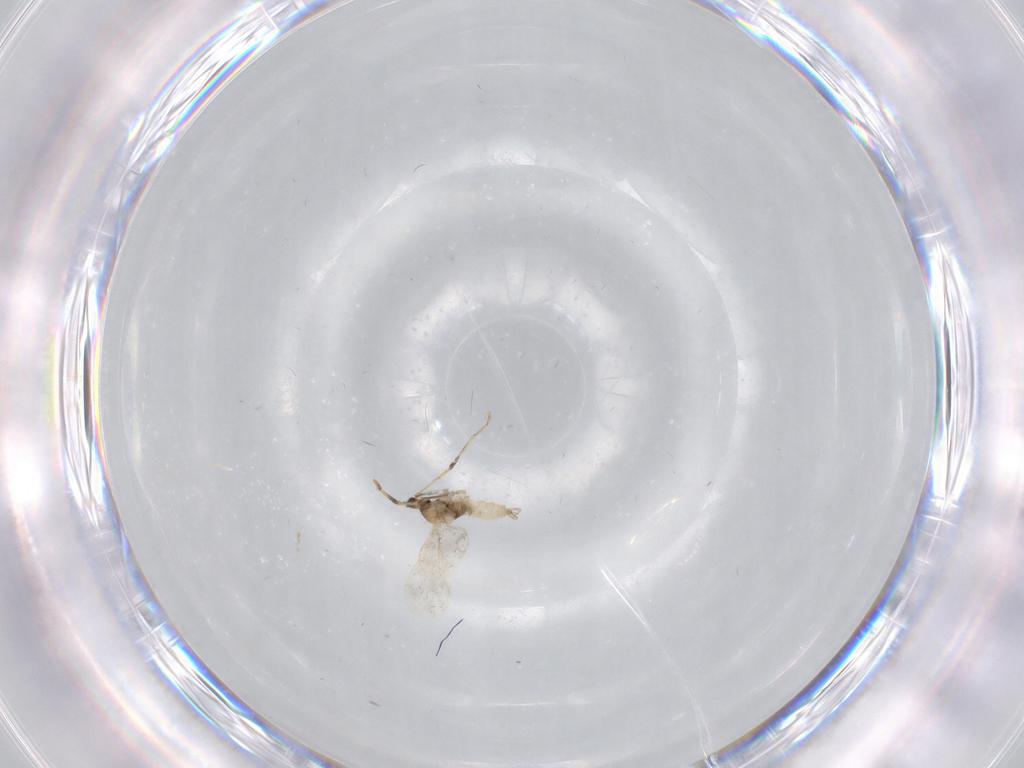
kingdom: Animalia
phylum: Arthropoda
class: Insecta
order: Diptera
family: Cecidomyiidae
